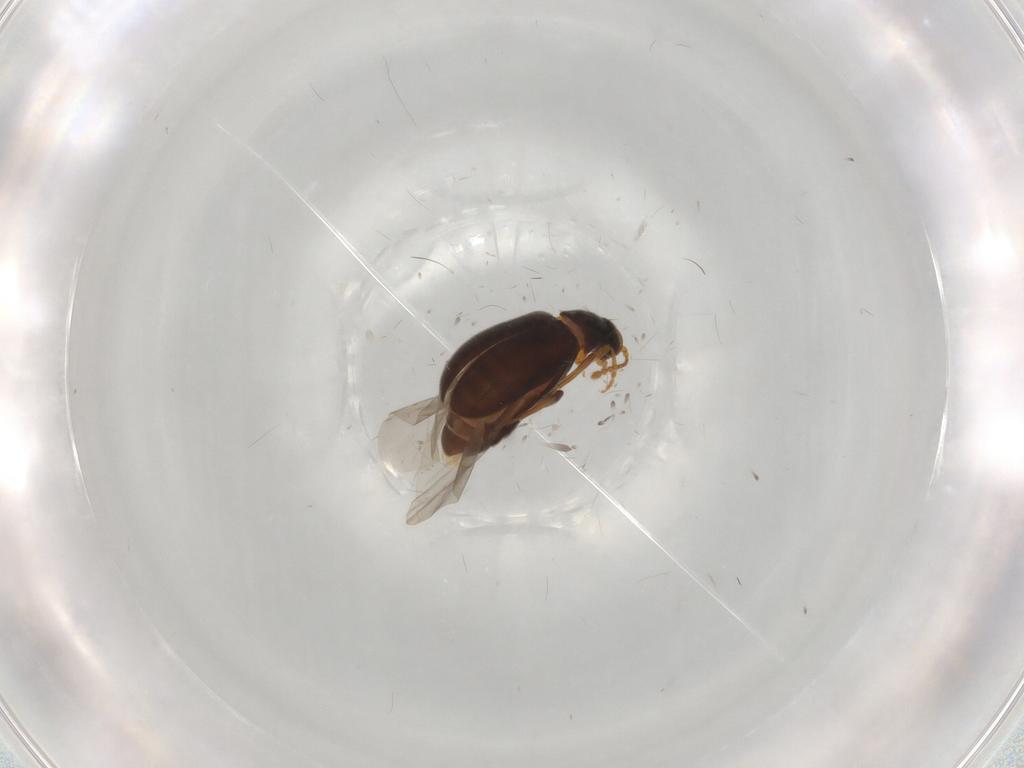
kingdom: Animalia
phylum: Arthropoda
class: Insecta
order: Coleoptera
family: Aderidae
